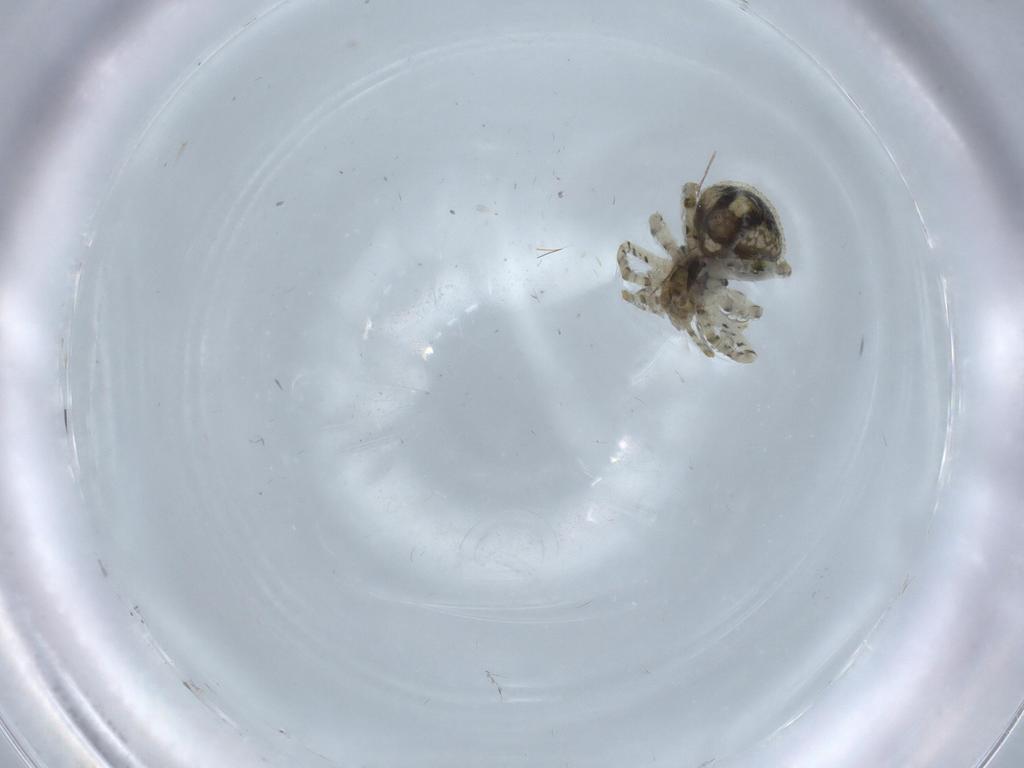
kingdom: Animalia
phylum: Arthropoda
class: Arachnida
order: Araneae
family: Theridiidae
